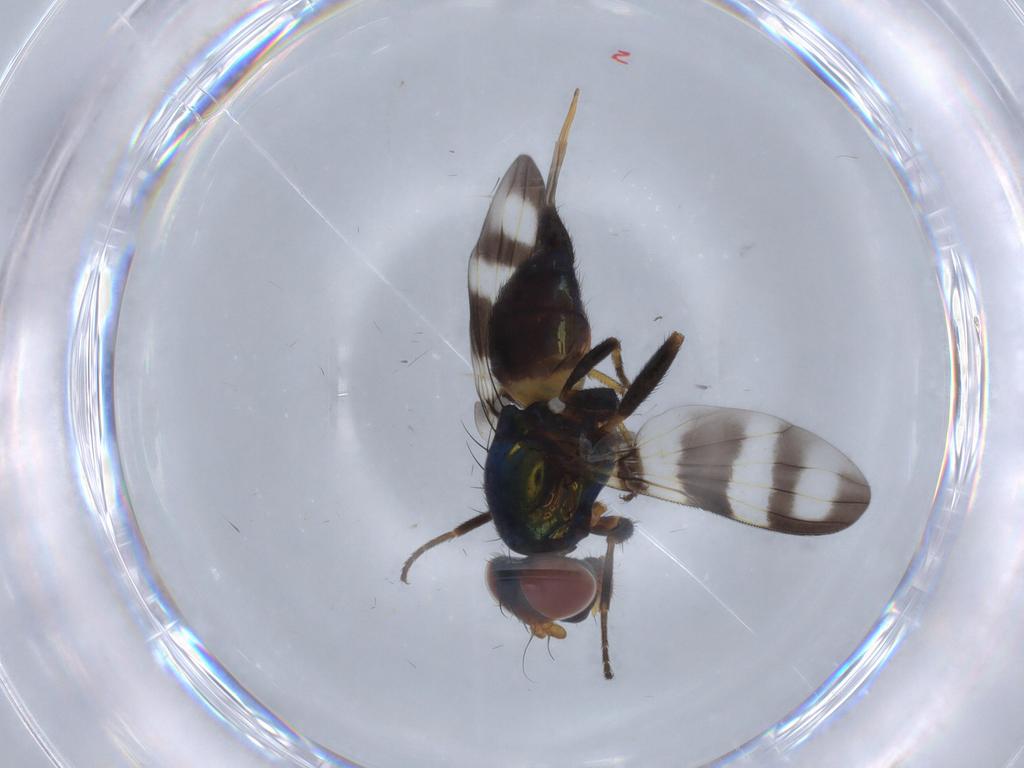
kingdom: Animalia
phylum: Arthropoda
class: Insecta
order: Diptera
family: Ulidiidae
